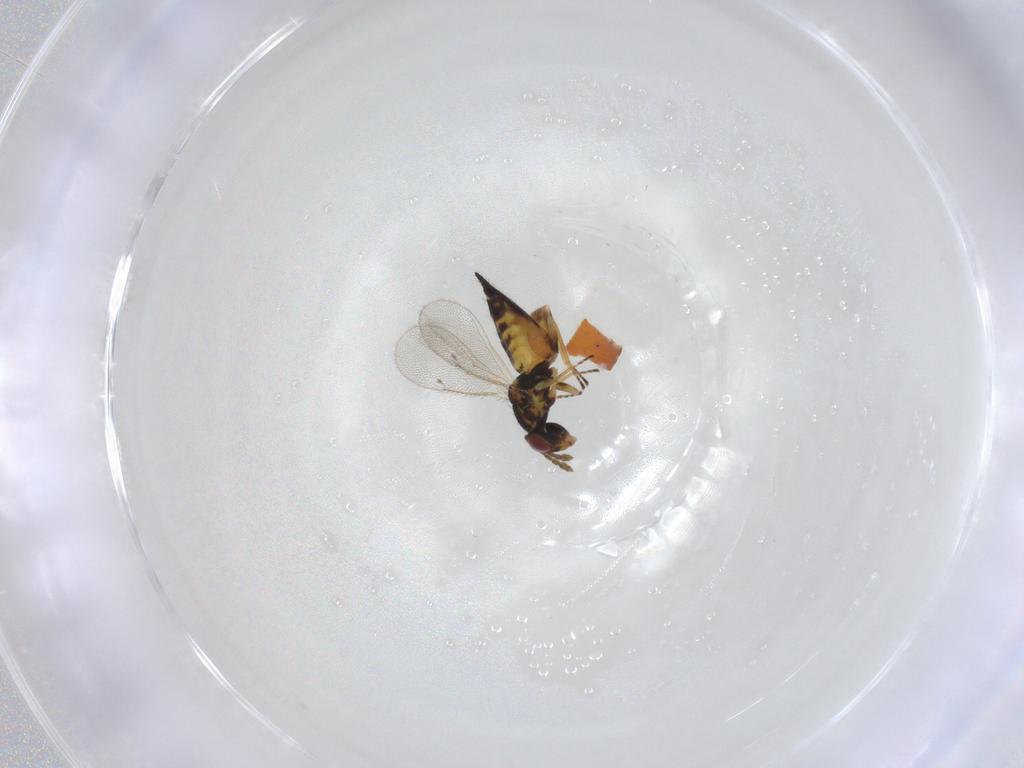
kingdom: Animalia
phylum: Arthropoda
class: Insecta
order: Hymenoptera
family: Eulophidae
